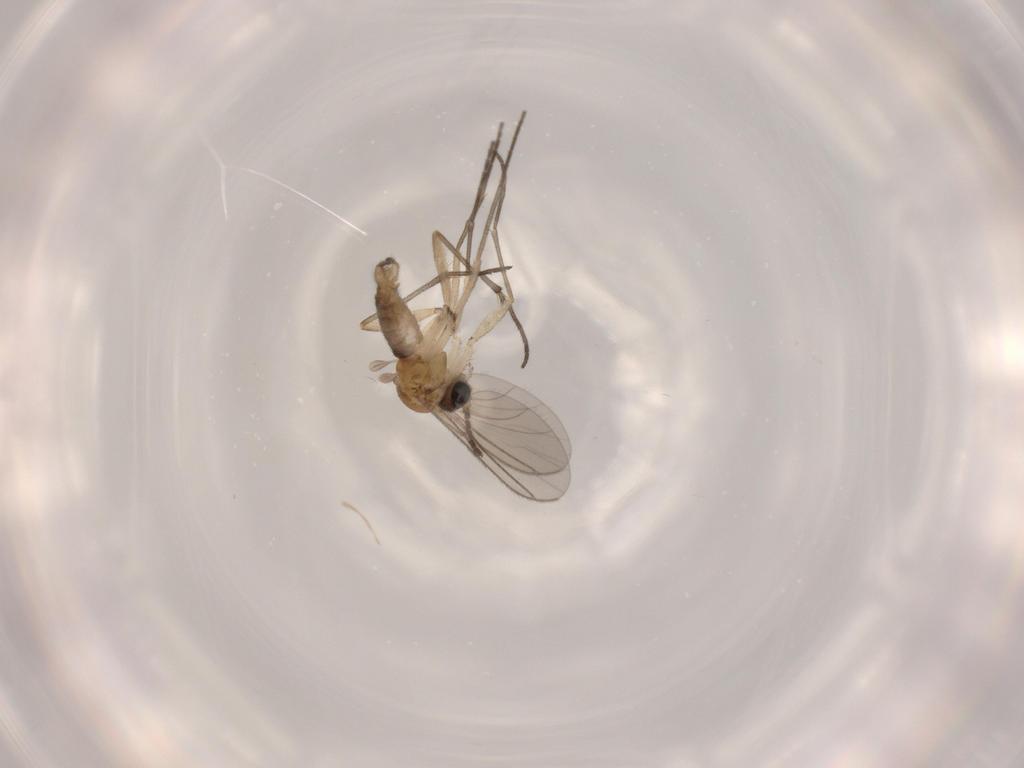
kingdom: Animalia
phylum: Arthropoda
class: Insecta
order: Diptera
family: Sciaridae
